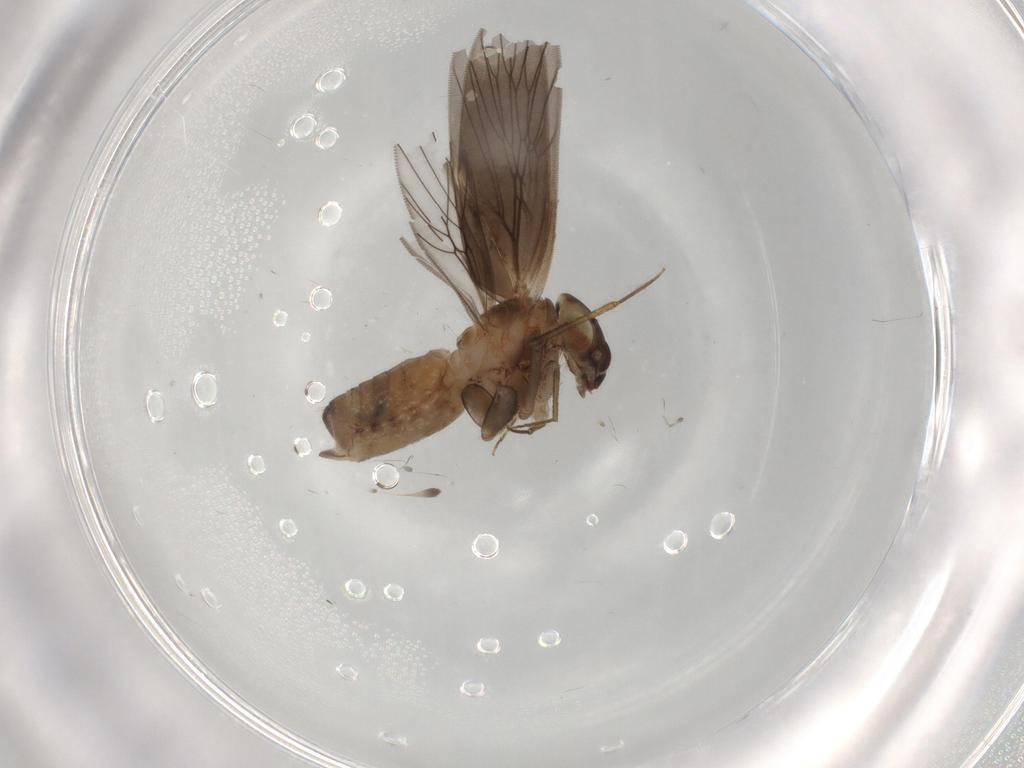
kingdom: Animalia
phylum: Arthropoda
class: Insecta
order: Psocodea
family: Lepidopsocidae
